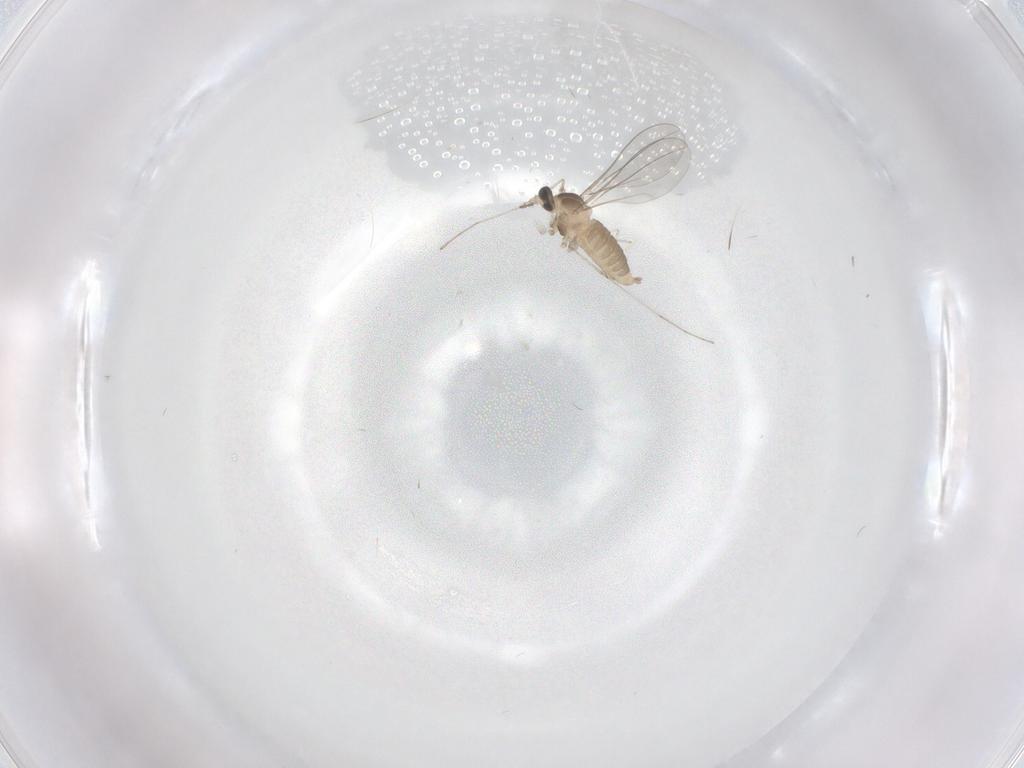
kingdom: Animalia
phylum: Arthropoda
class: Insecta
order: Diptera
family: Cecidomyiidae
